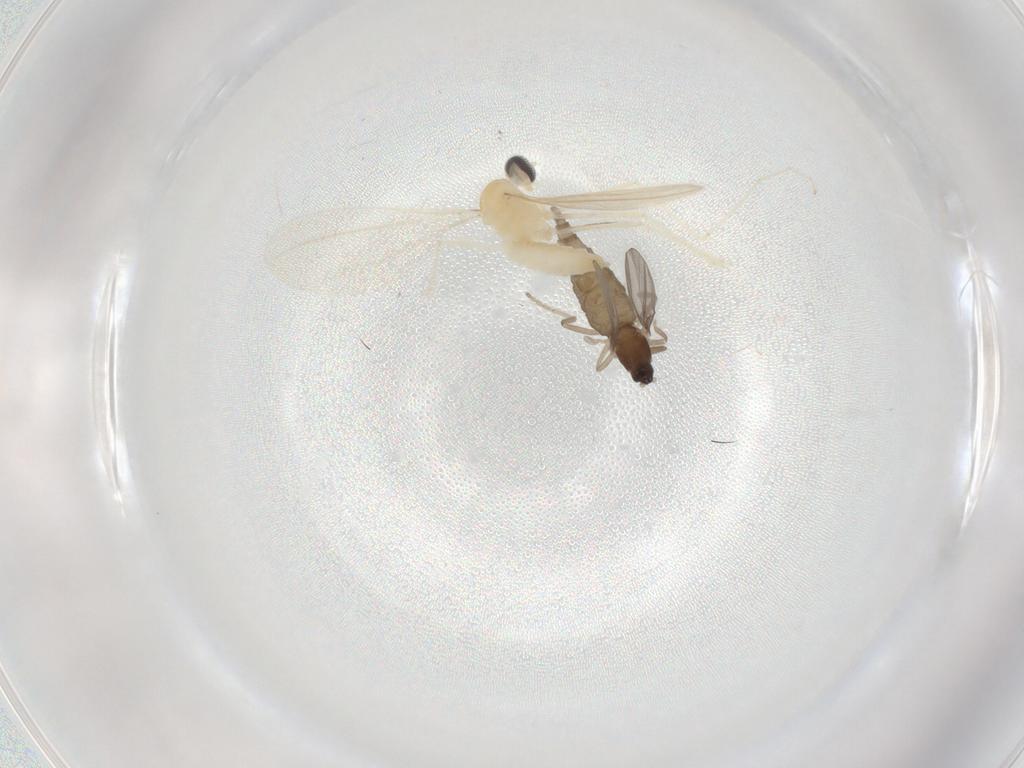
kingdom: Animalia
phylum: Arthropoda
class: Insecta
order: Diptera
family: Cecidomyiidae
